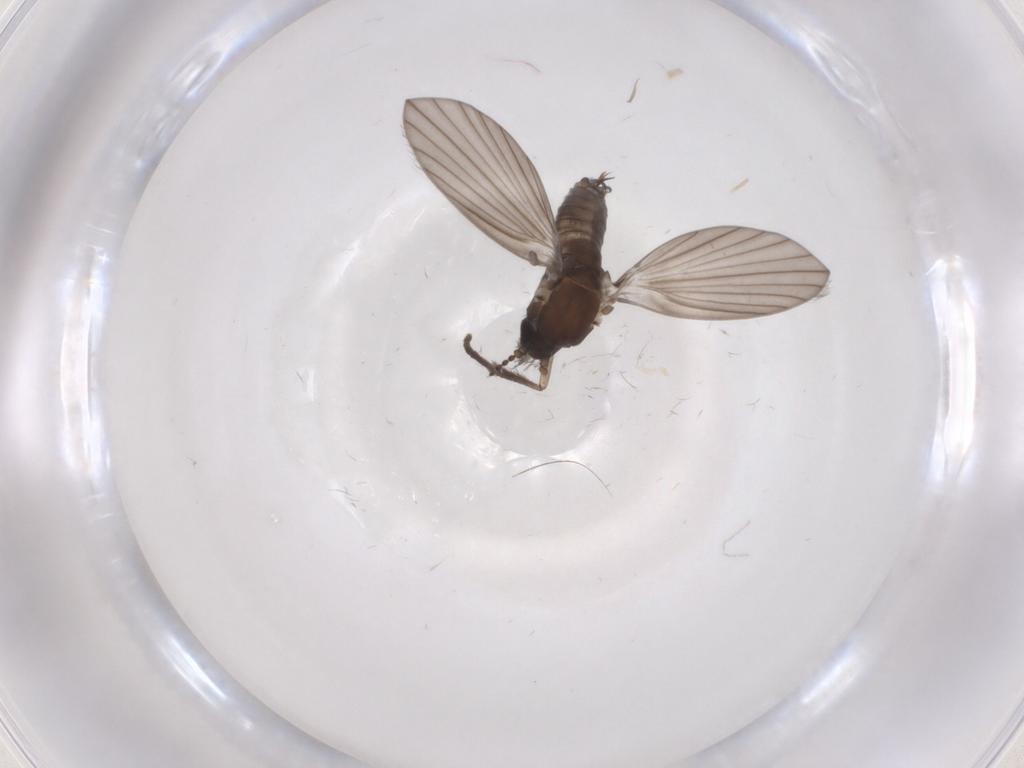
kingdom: Animalia
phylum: Arthropoda
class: Insecta
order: Diptera
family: Psychodidae
